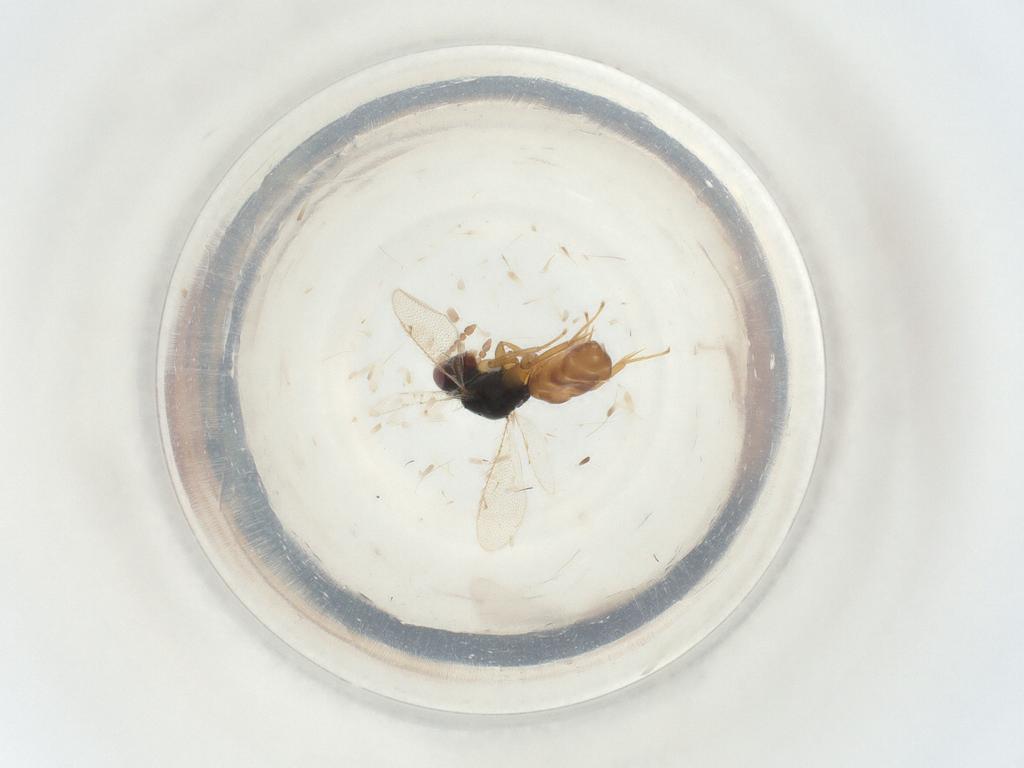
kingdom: Animalia
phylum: Arthropoda
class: Insecta
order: Hymenoptera
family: Eulophidae
